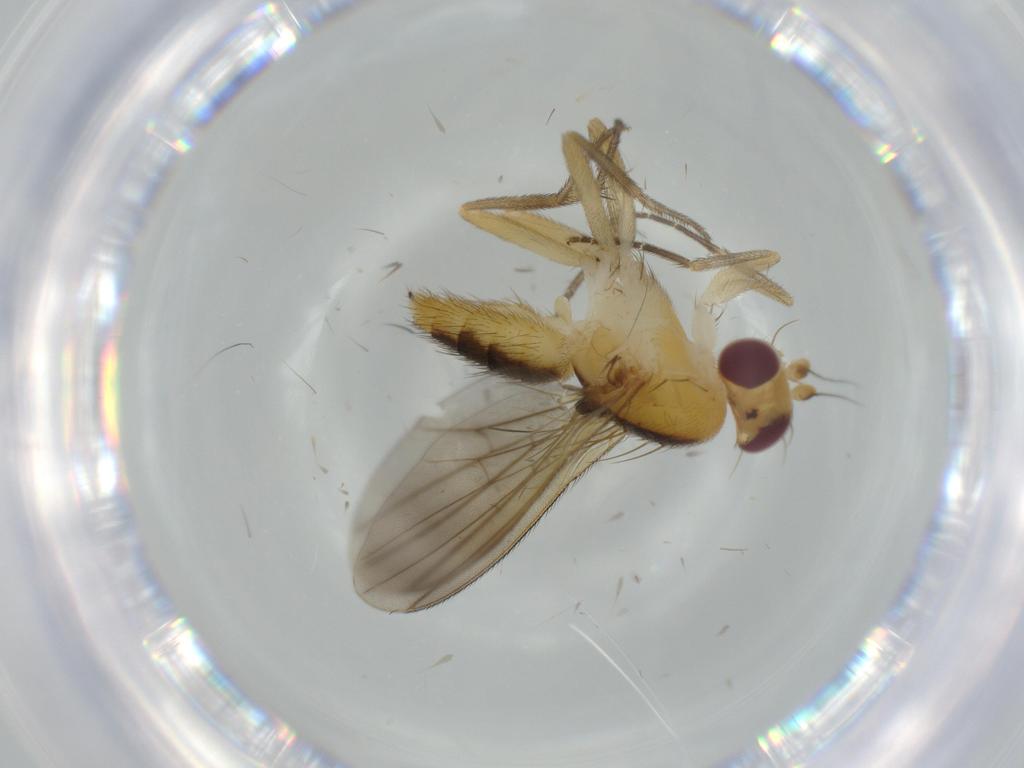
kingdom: Animalia
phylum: Arthropoda
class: Insecta
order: Diptera
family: Clusiidae
